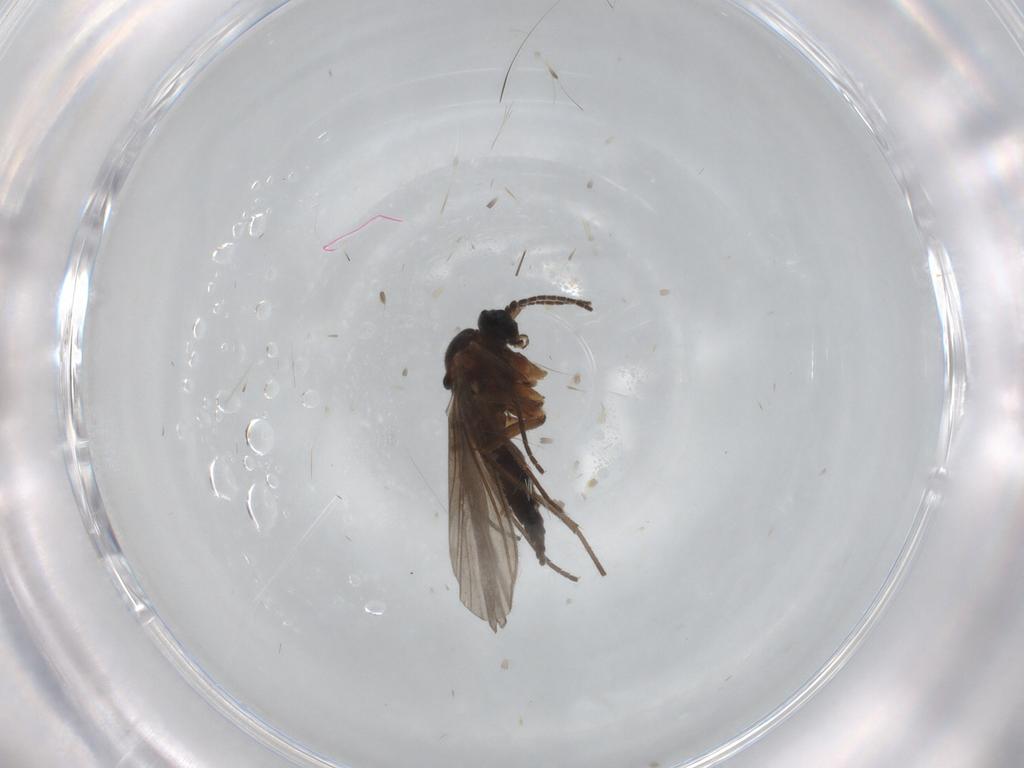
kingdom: Animalia
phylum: Arthropoda
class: Insecta
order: Diptera
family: Sciaridae
